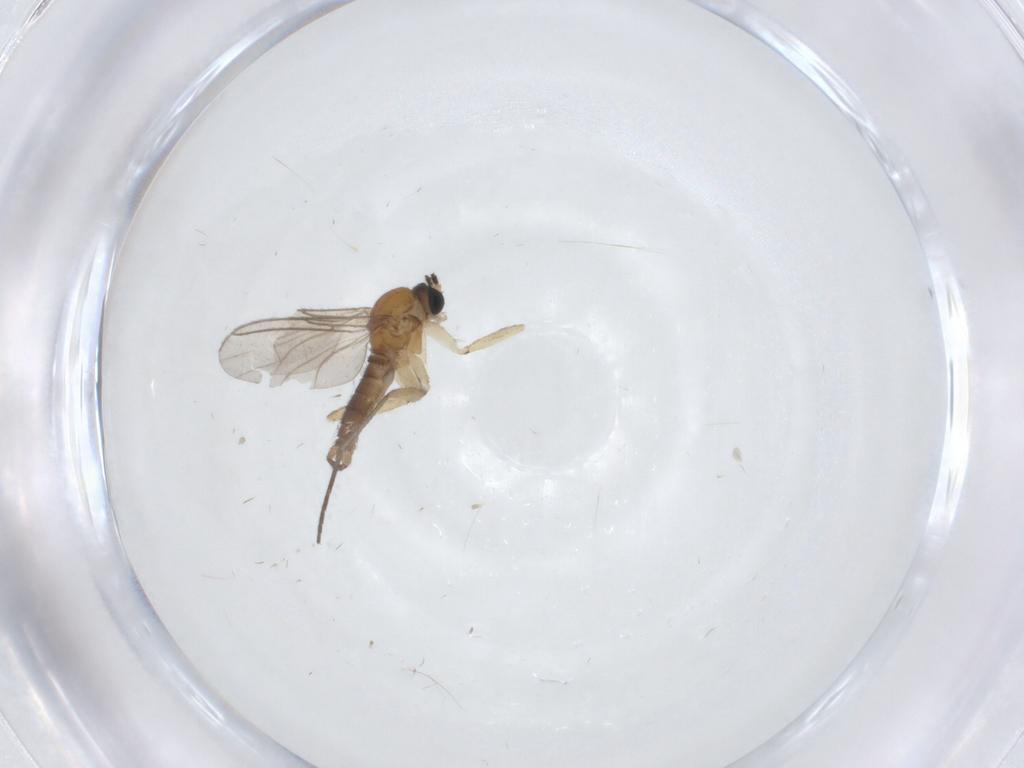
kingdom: Animalia
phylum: Arthropoda
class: Insecta
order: Diptera
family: Sciaridae
